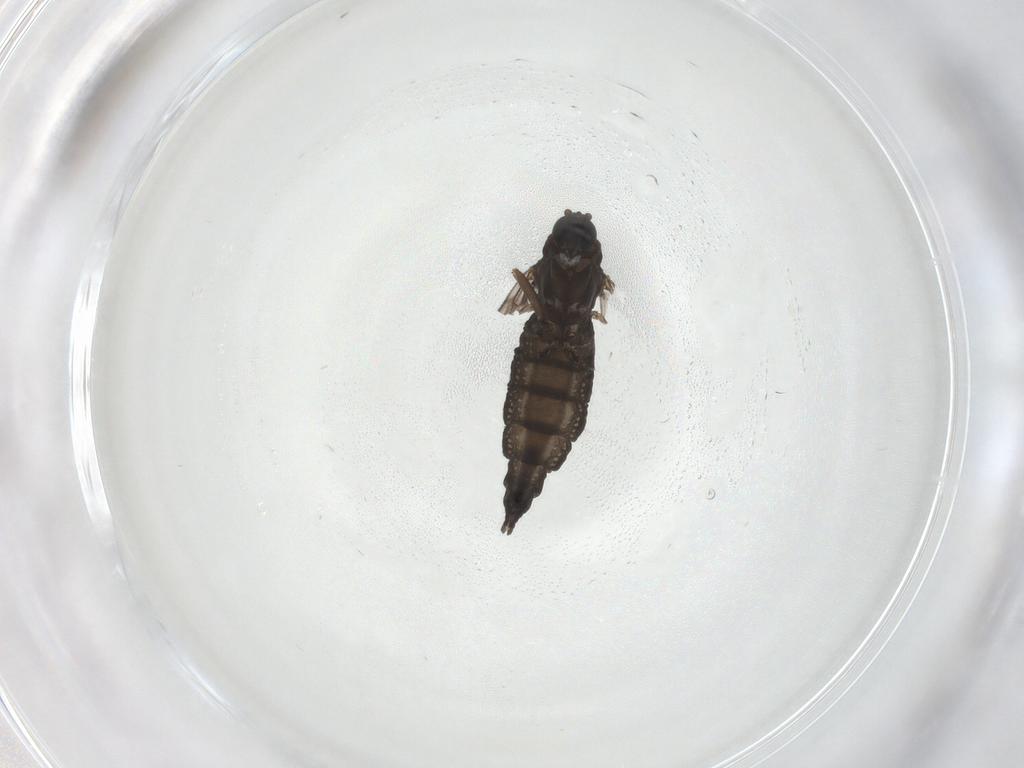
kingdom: Animalia
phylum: Arthropoda
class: Insecta
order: Diptera
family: Sciaridae
